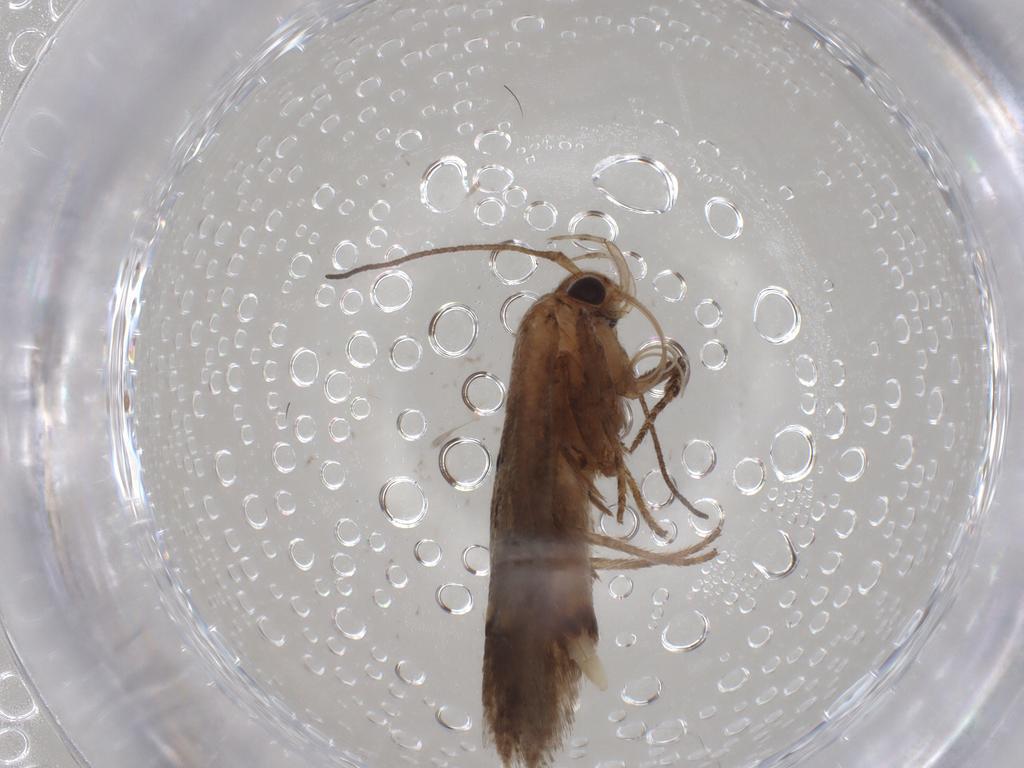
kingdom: Animalia
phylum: Arthropoda
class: Insecta
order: Lepidoptera
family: Gelechiidae
